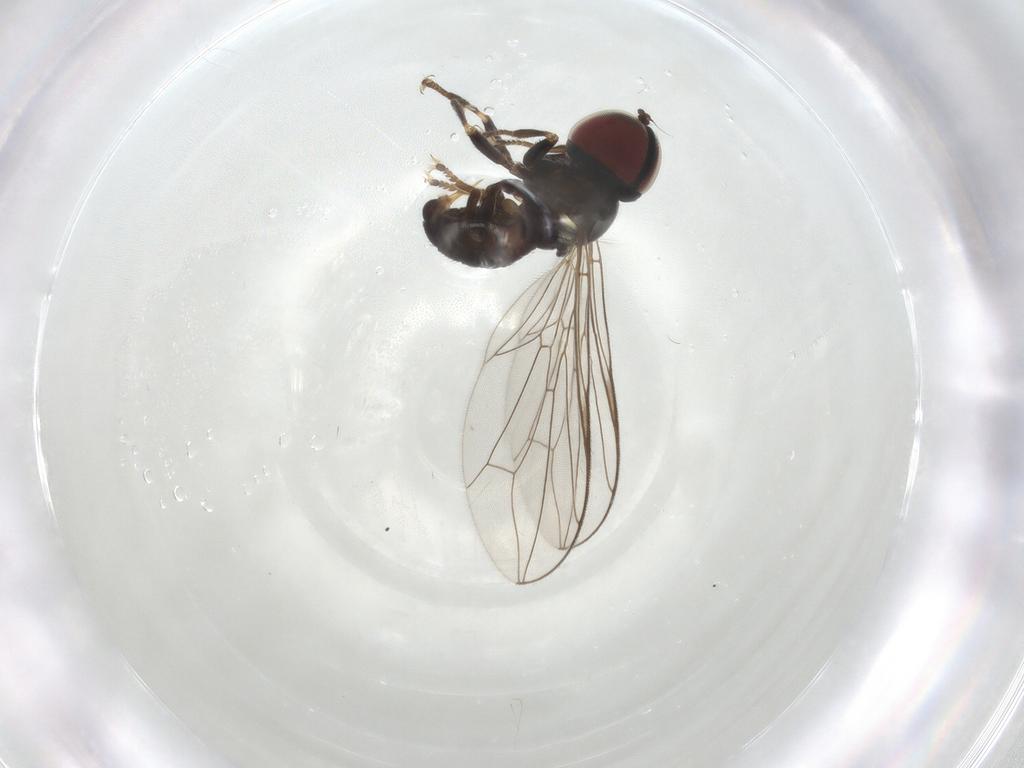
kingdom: Animalia
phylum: Arthropoda
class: Insecta
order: Diptera
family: Pipunculidae
